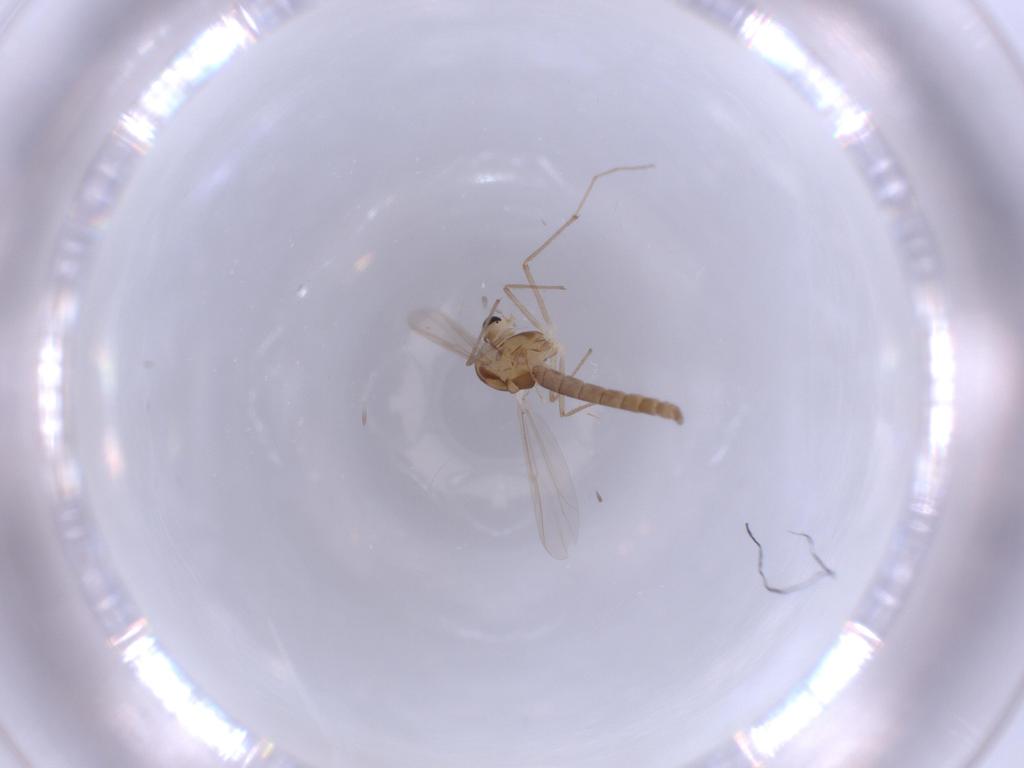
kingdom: Animalia
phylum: Arthropoda
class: Insecta
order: Diptera
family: Chironomidae
